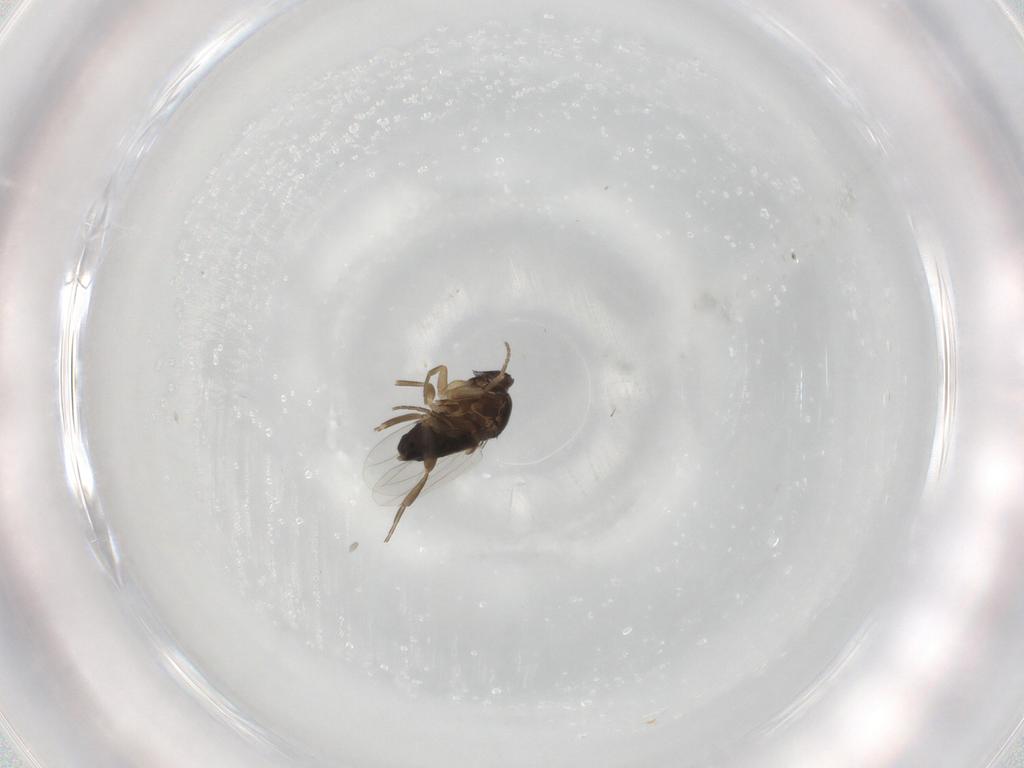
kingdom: Animalia
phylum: Arthropoda
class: Insecta
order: Diptera
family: Phoridae
